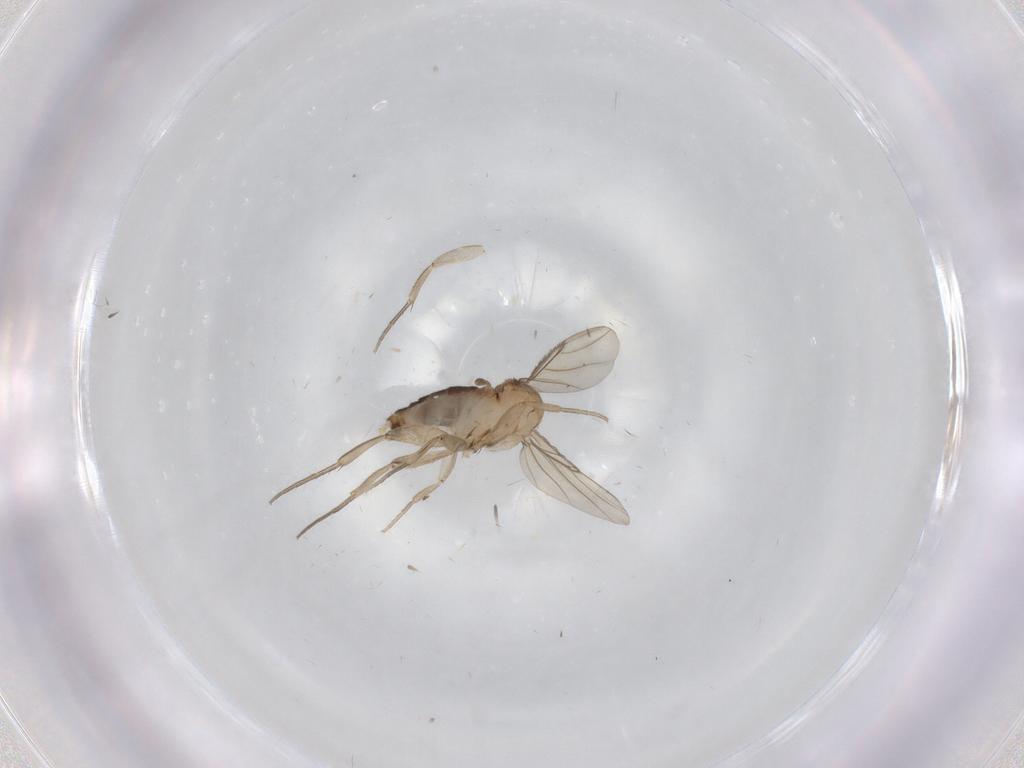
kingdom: Animalia
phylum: Arthropoda
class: Insecta
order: Diptera
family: Phoridae
